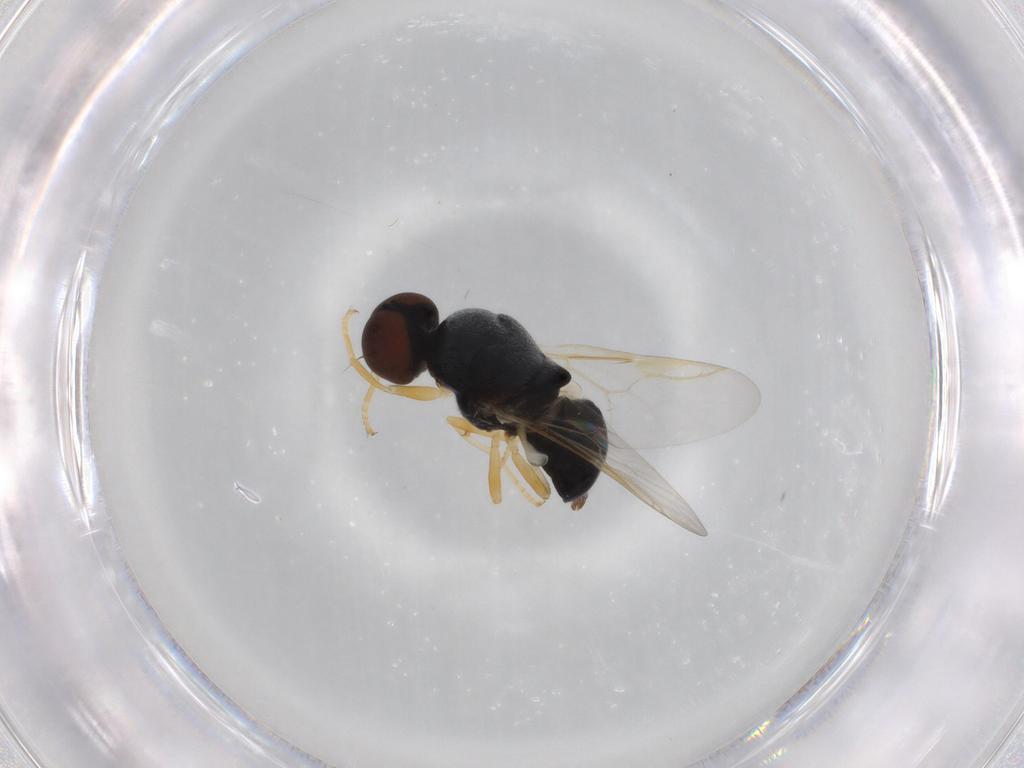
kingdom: Animalia
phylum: Arthropoda
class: Insecta
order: Diptera
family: Stratiomyidae
